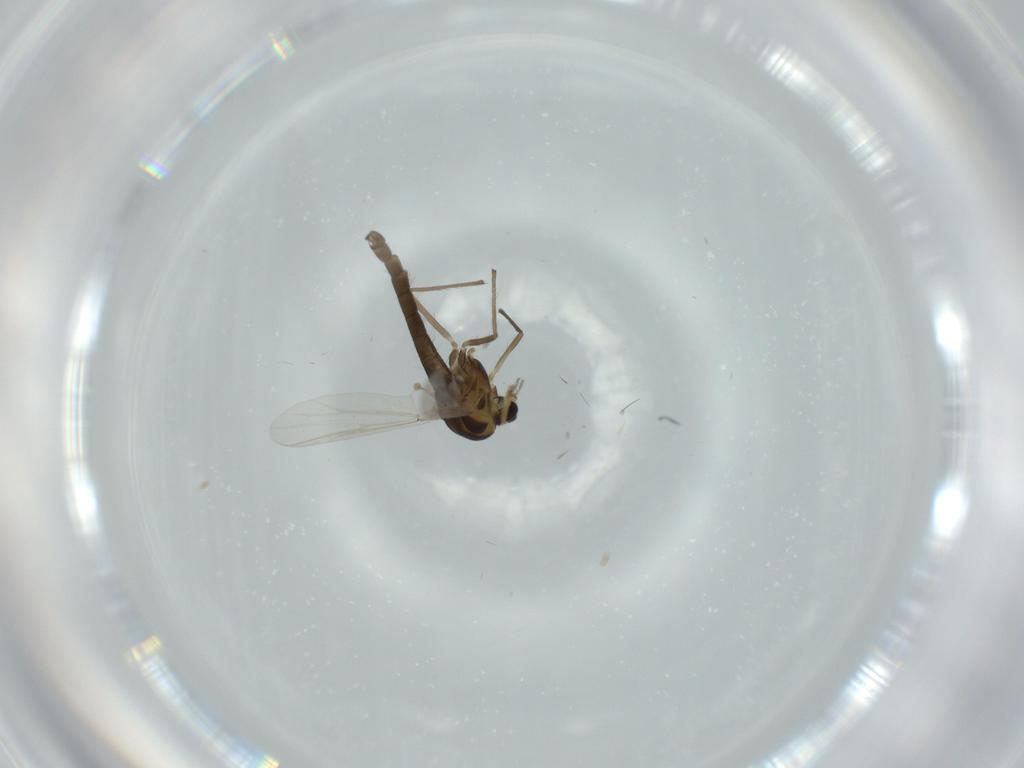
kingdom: Animalia
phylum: Arthropoda
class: Insecta
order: Diptera
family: Chironomidae
